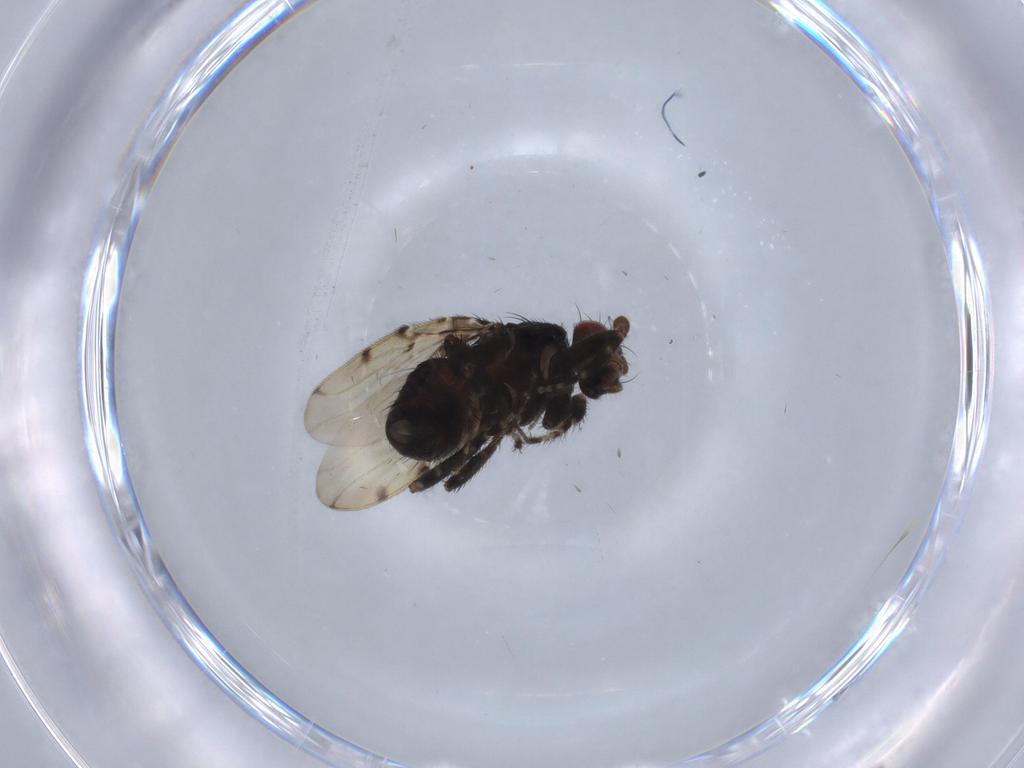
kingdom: Animalia
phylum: Arthropoda
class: Insecta
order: Diptera
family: Sphaeroceridae
